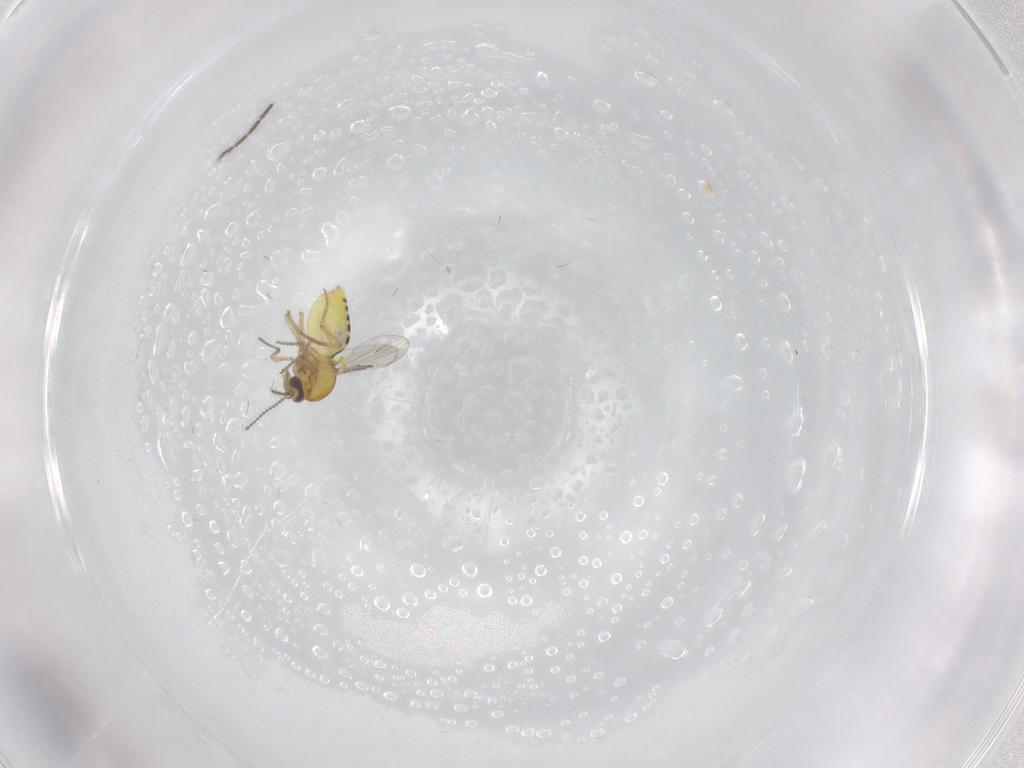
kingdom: Animalia
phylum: Arthropoda
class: Insecta
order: Diptera
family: Sciaridae
